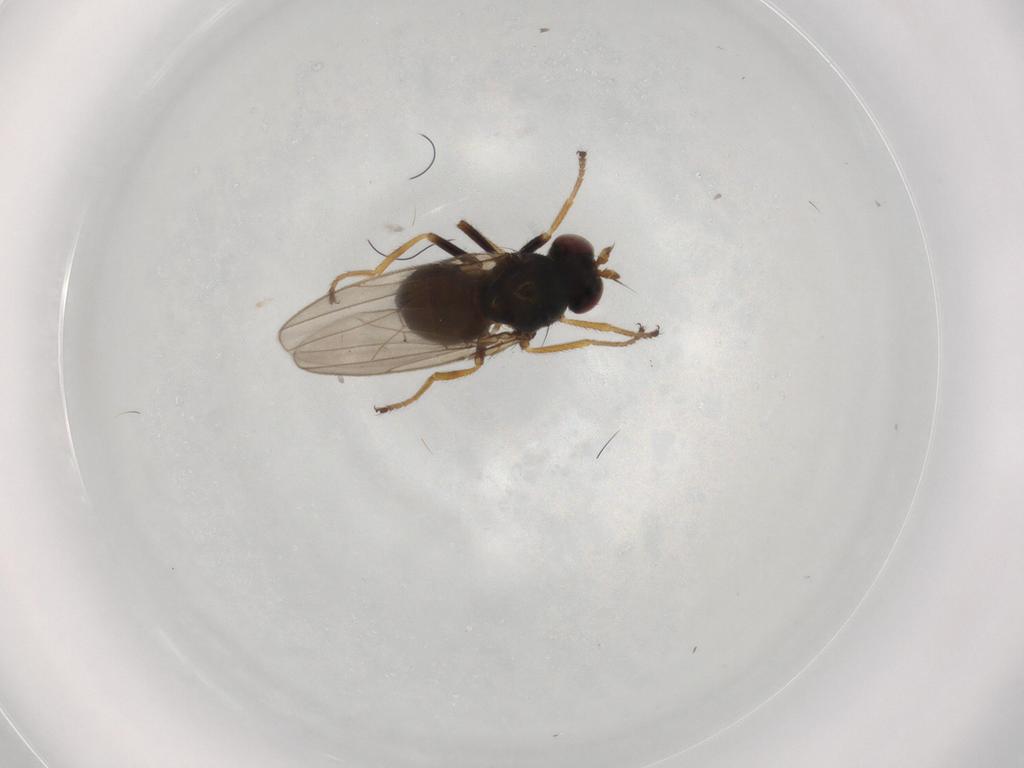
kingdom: Animalia
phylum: Arthropoda
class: Insecta
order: Diptera
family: Ephydridae
